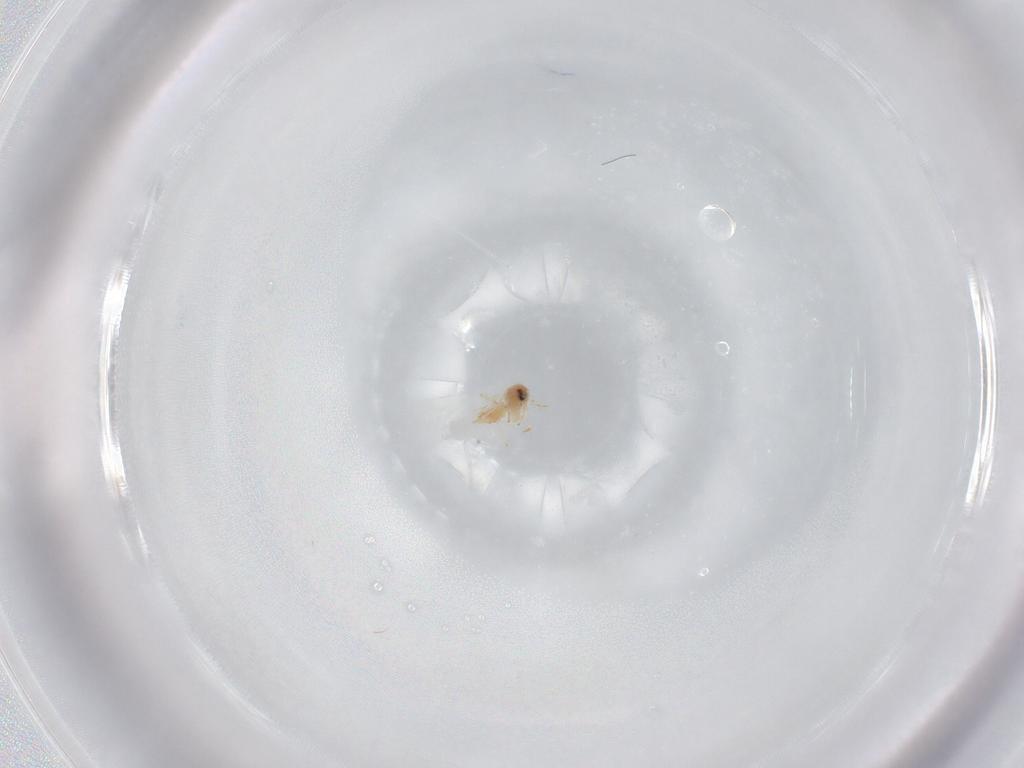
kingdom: Animalia
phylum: Arthropoda
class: Insecta
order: Hemiptera
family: Aleyrodidae
